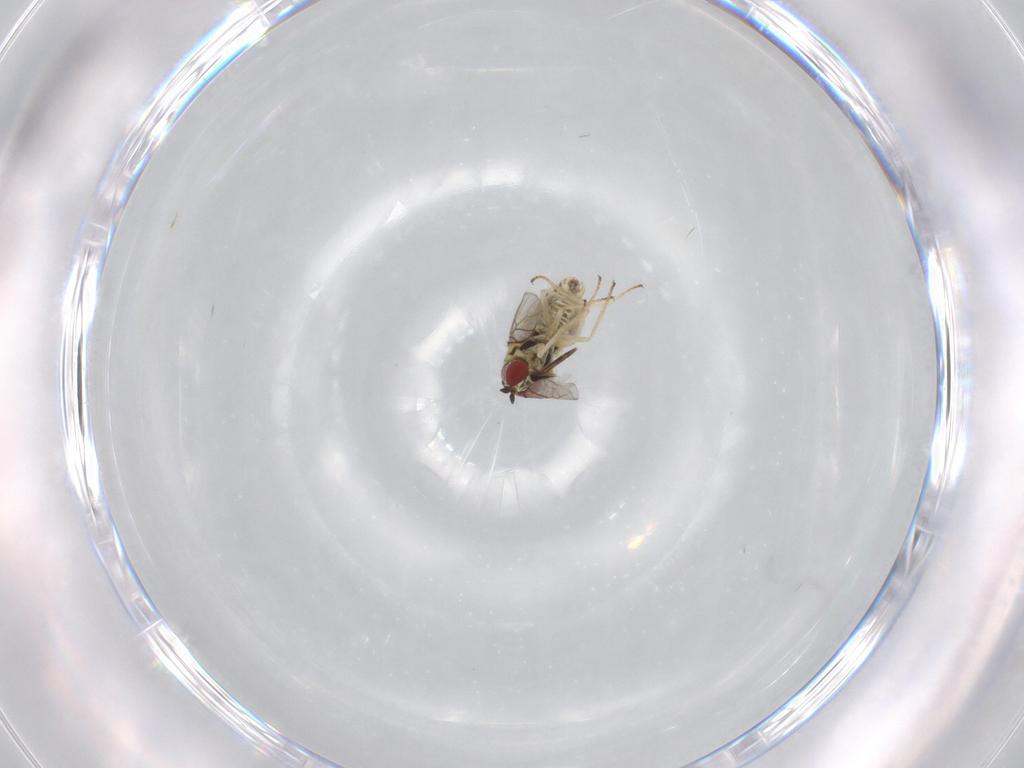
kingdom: Animalia
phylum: Arthropoda
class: Insecta
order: Diptera
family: Bombyliidae
